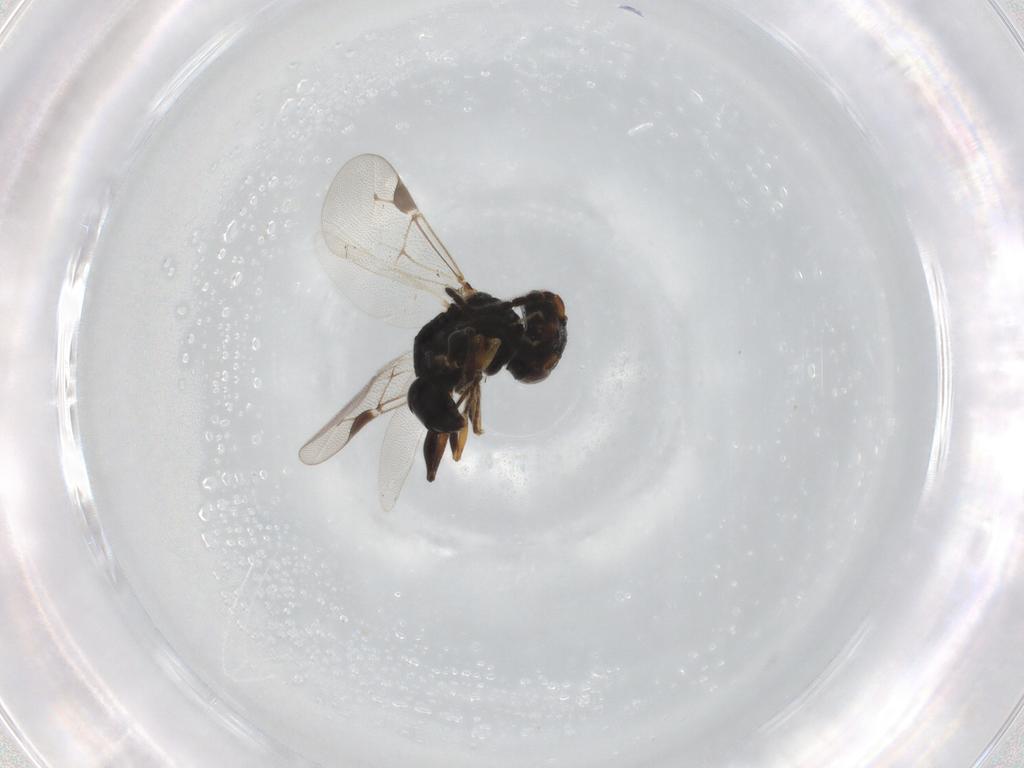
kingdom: Animalia
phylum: Arthropoda
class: Insecta
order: Hymenoptera
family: Dryinidae
